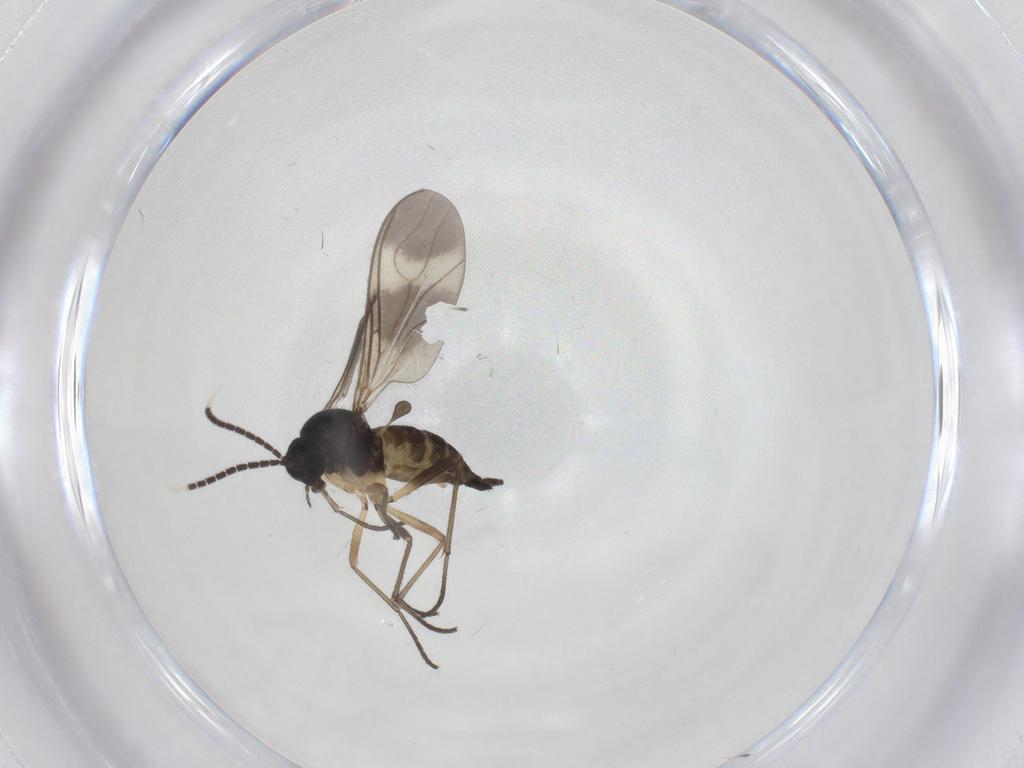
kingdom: Animalia
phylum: Arthropoda
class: Insecta
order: Diptera
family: Sciaridae
